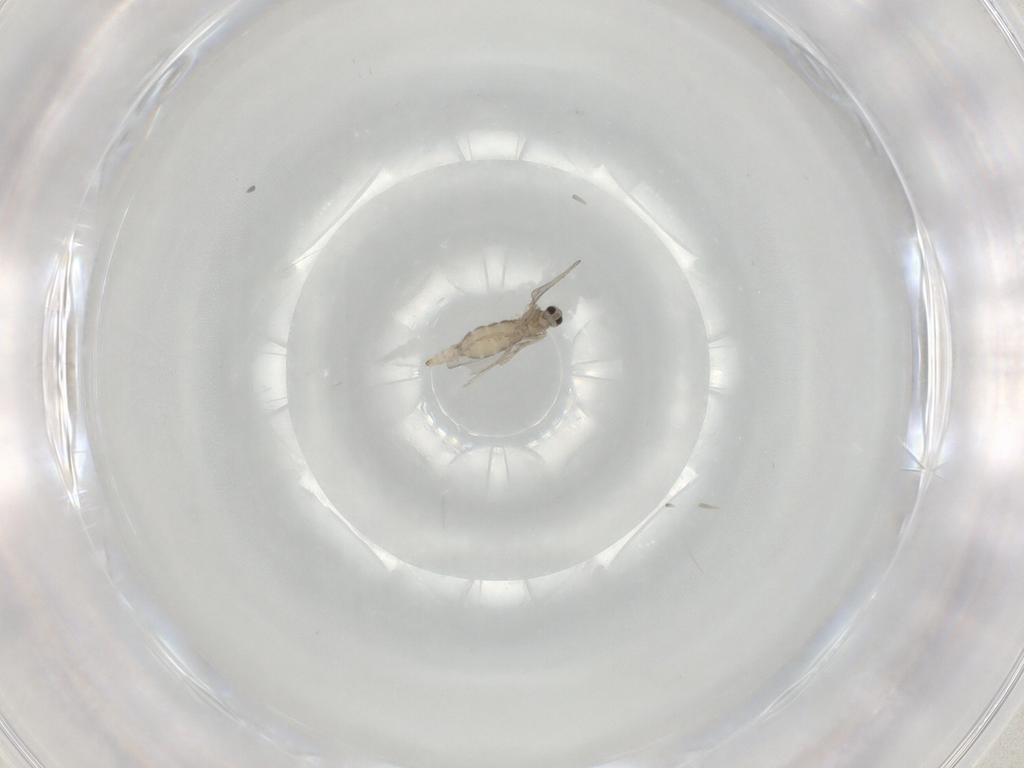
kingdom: Animalia
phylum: Arthropoda
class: Insecta
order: Diptera
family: Cecidomyiidae
